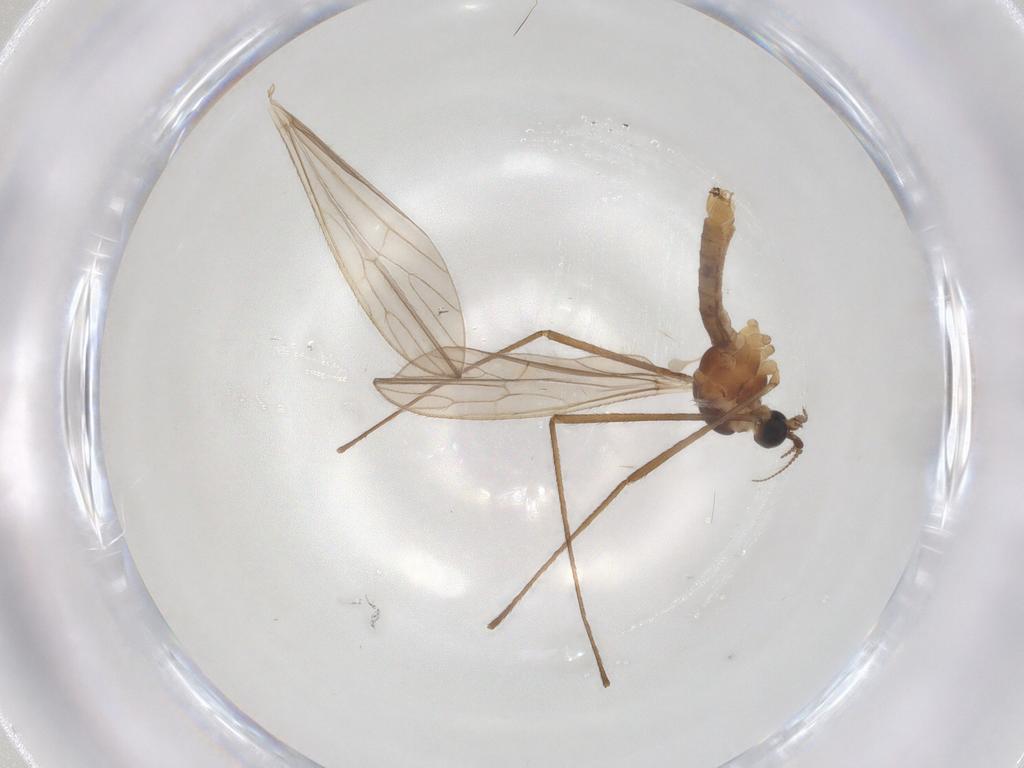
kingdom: Animalia
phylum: Arthropoda
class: Insecta
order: Diptera
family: Limoniidae
